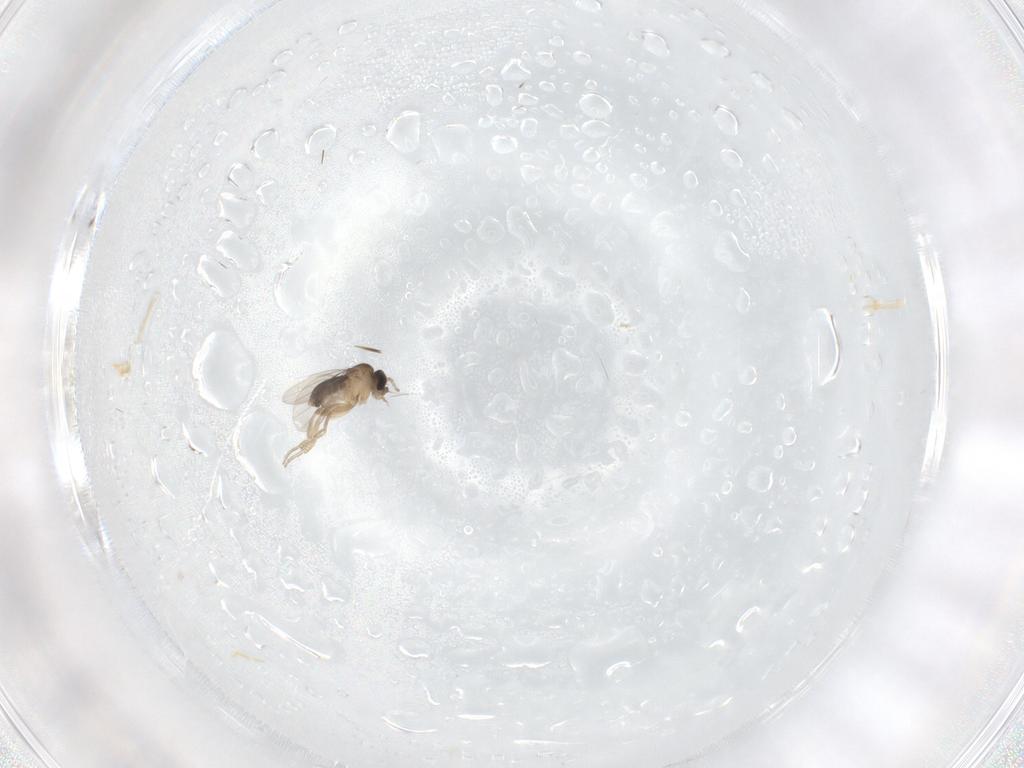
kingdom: Animalia
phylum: Arthropoda
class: Insecta
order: Diptera
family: Phoridae
